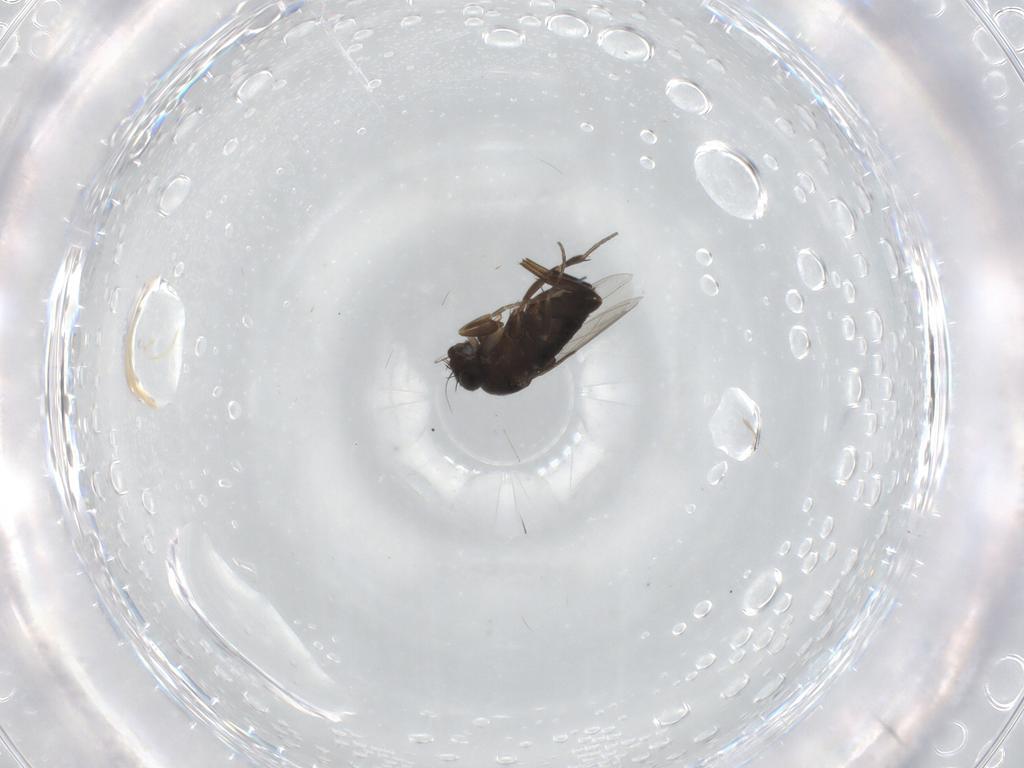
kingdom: Animalia
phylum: Arthropoda
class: Insecta
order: Diptera
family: Phoridae
